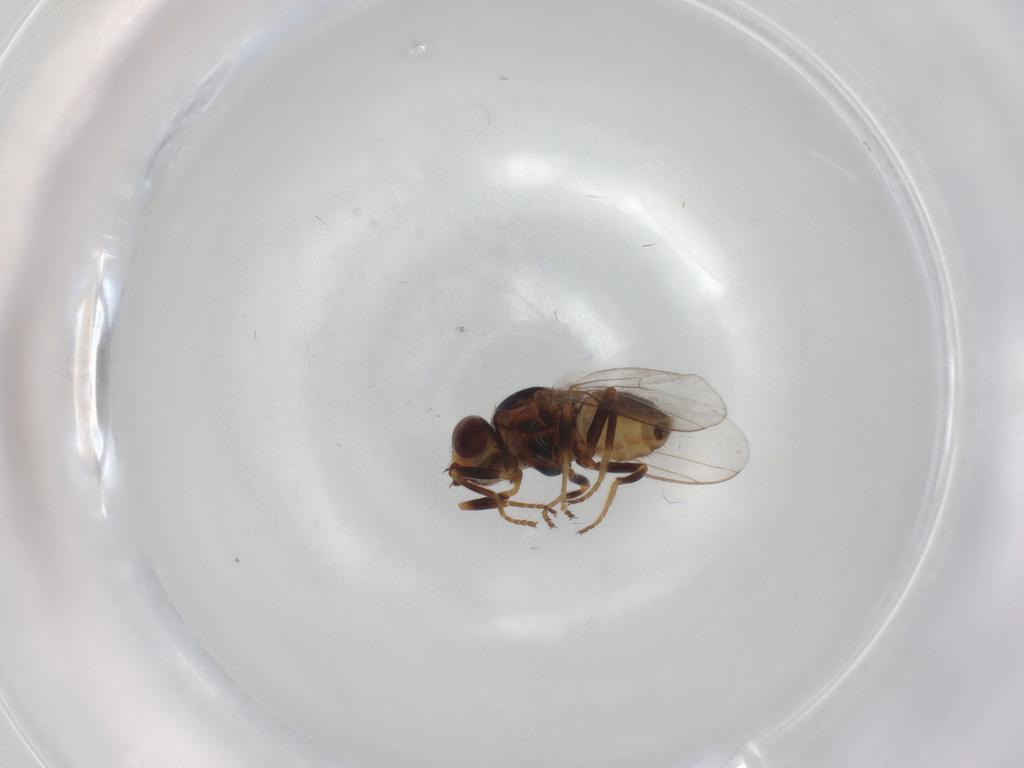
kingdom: Animalia
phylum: Arthropoda
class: Insecta
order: Diptera
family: Chloropidae
